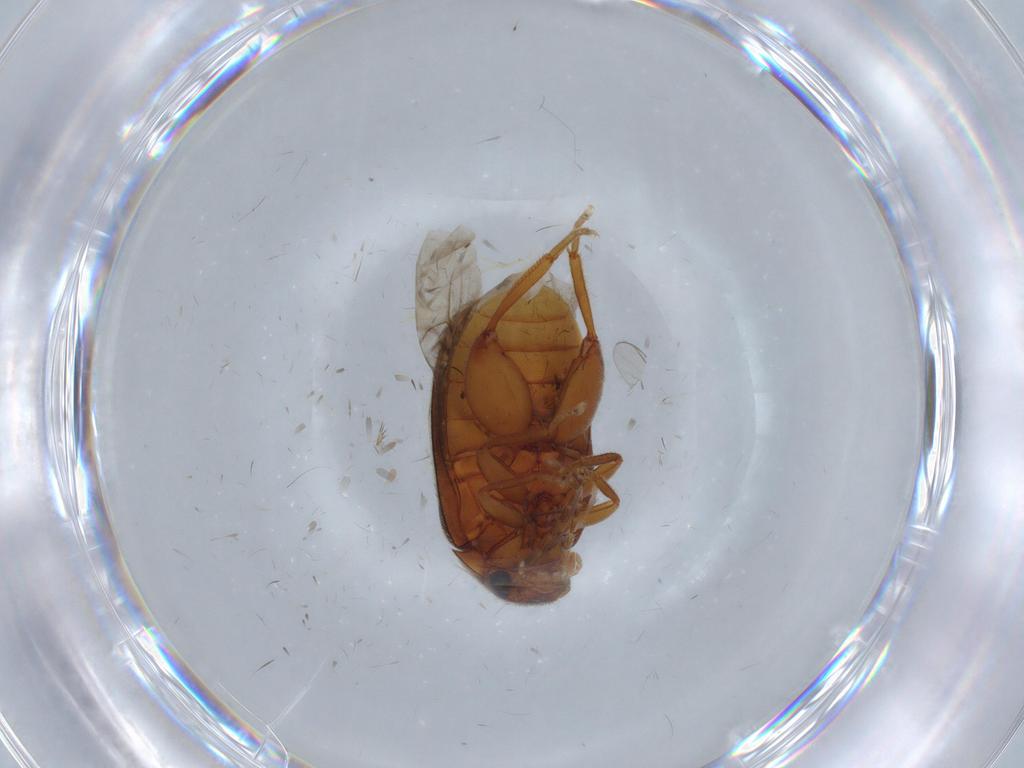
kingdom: Animalia
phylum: Arthropoda
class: Insecta
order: Coleoptera
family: Scirtidae
